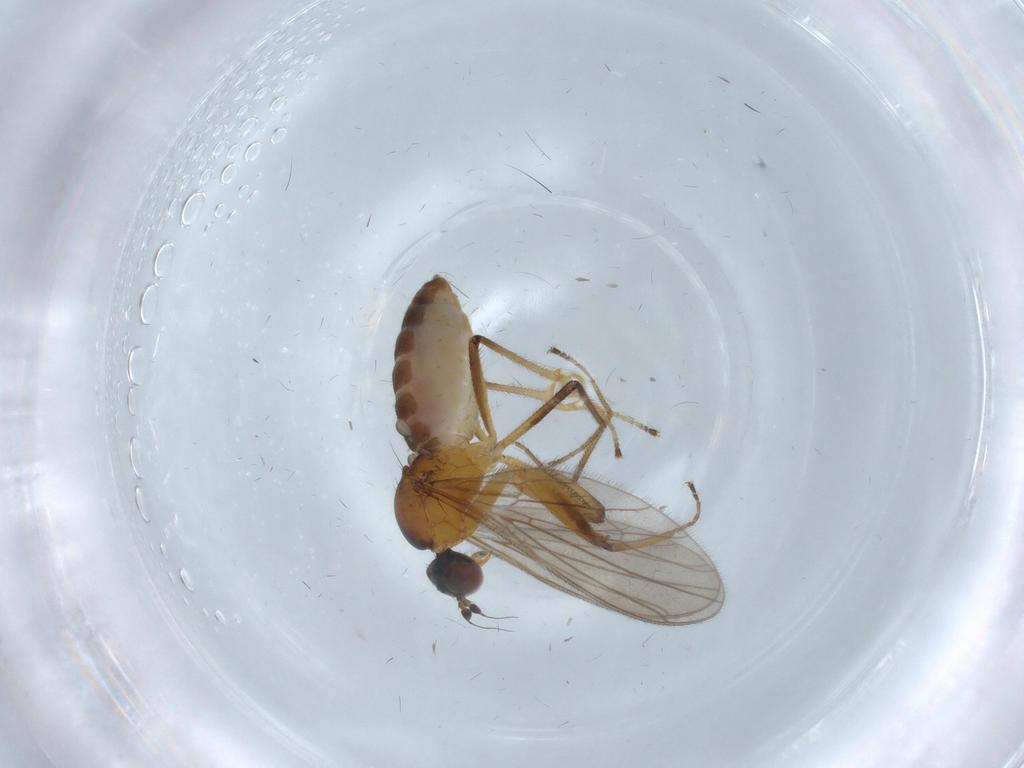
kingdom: Animalia
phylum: Arthropoda
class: Insecta
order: Diptera
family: Empididae
